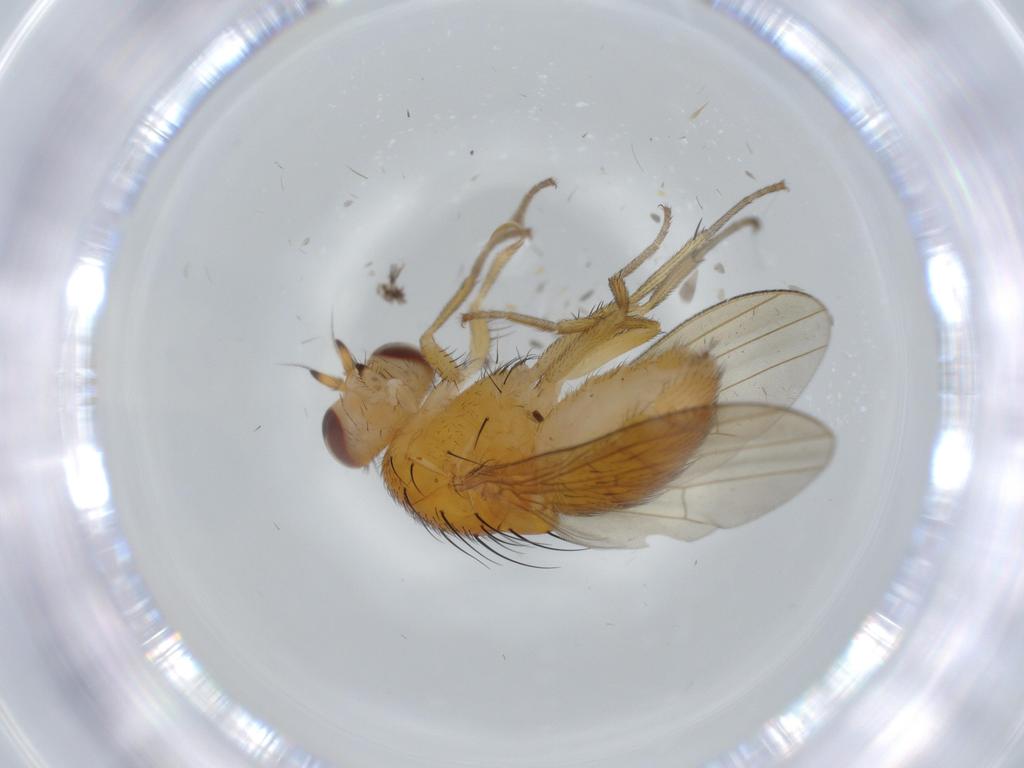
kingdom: Animalia
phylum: Arthropoda
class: Insecta
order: Diptera
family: Lauxaniidae
